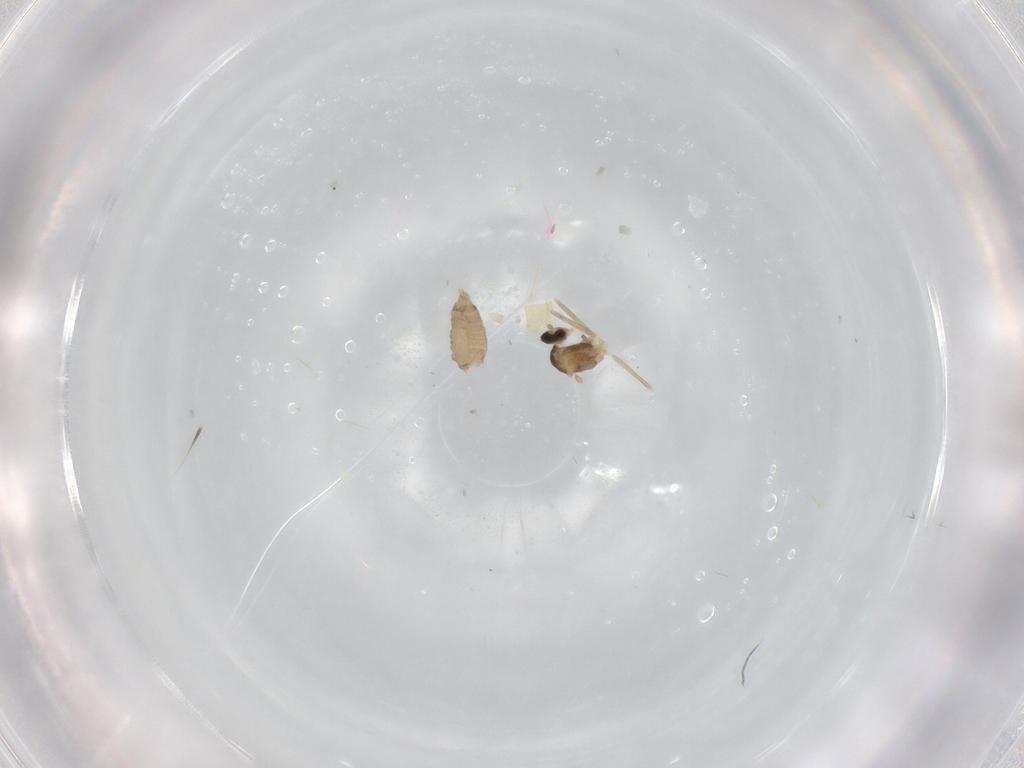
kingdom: Animalia
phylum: Arthropoda
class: Insecta
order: Diptera
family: Cecidomyiidae
